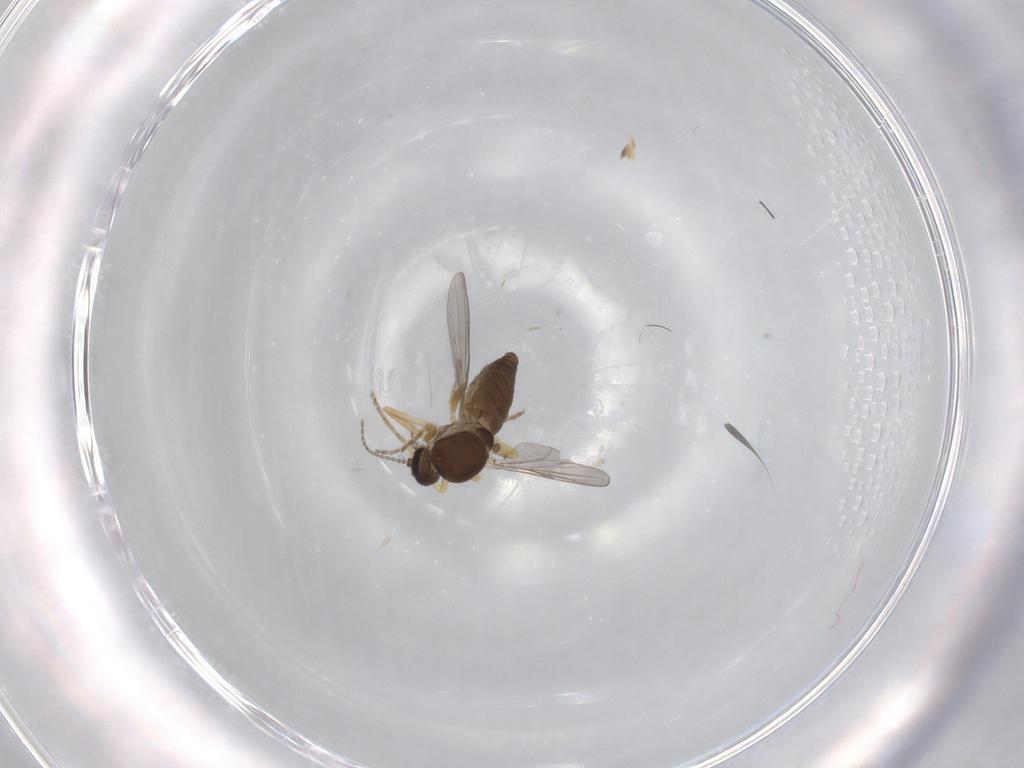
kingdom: Animalia
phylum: Arthropoda
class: Insecta
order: Diptera
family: Ceratopogonidae
